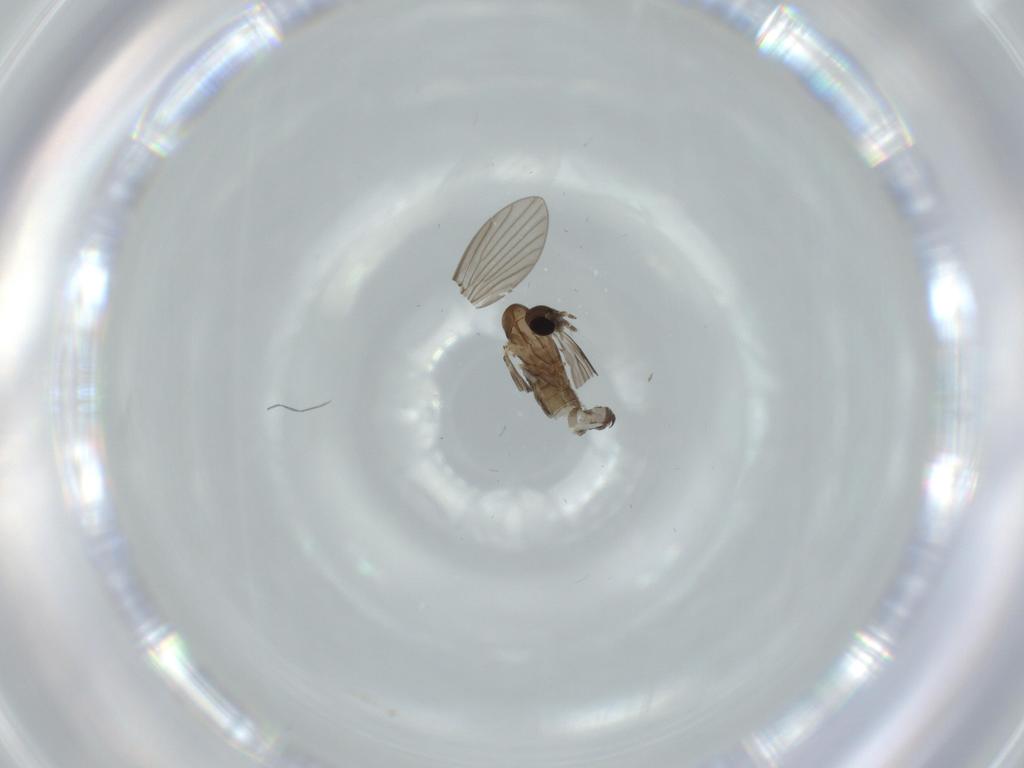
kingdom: Animalia
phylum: Arthropoda
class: Insecta
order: Diptera
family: Psychodidae
